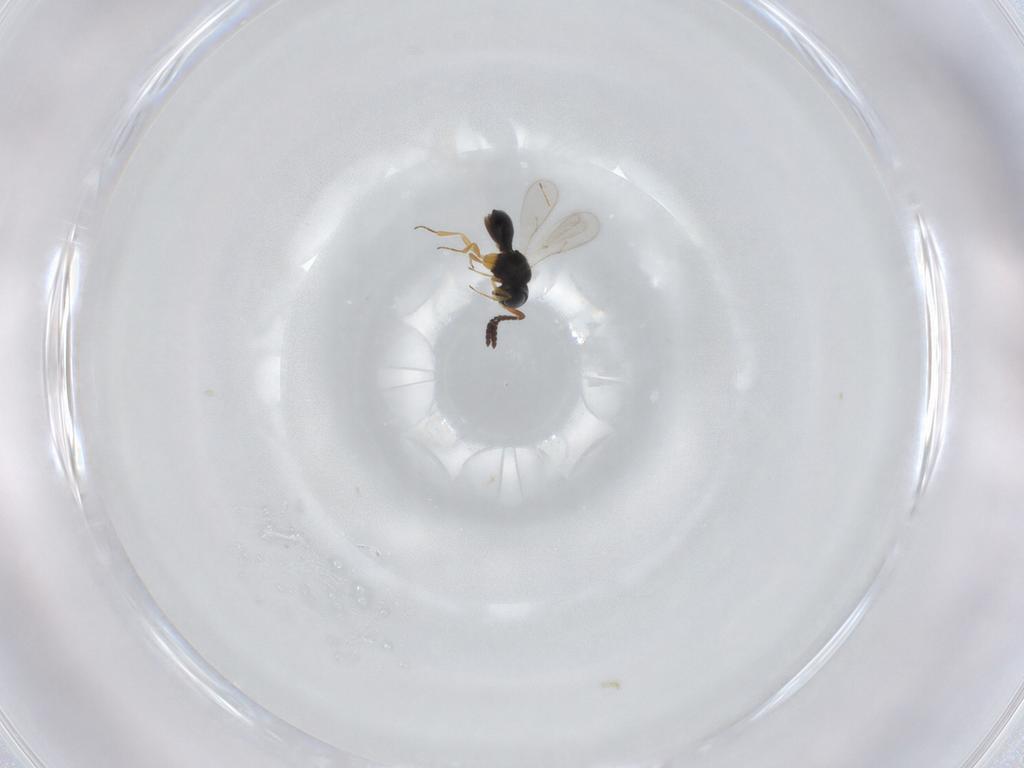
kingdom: Animalia
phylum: Arthropoda
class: Insecta
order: Hymenoptera
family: Scelionidae
